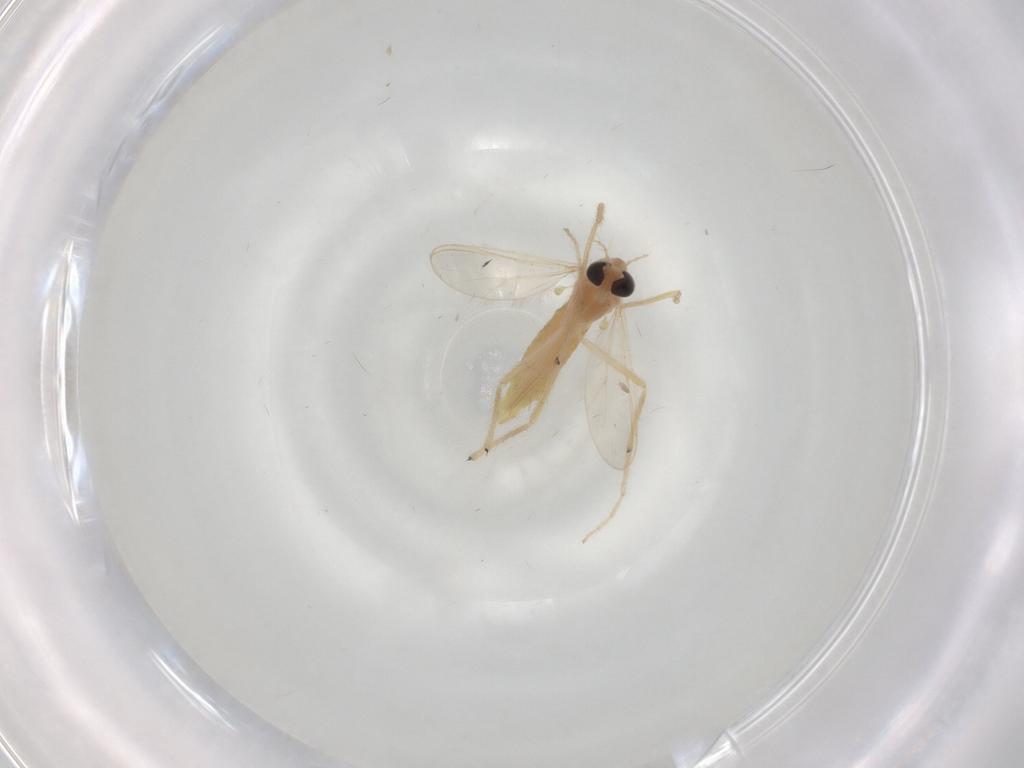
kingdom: Animalia
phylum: Arthropoda
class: Insecta
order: Diptera
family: Chironomidae
